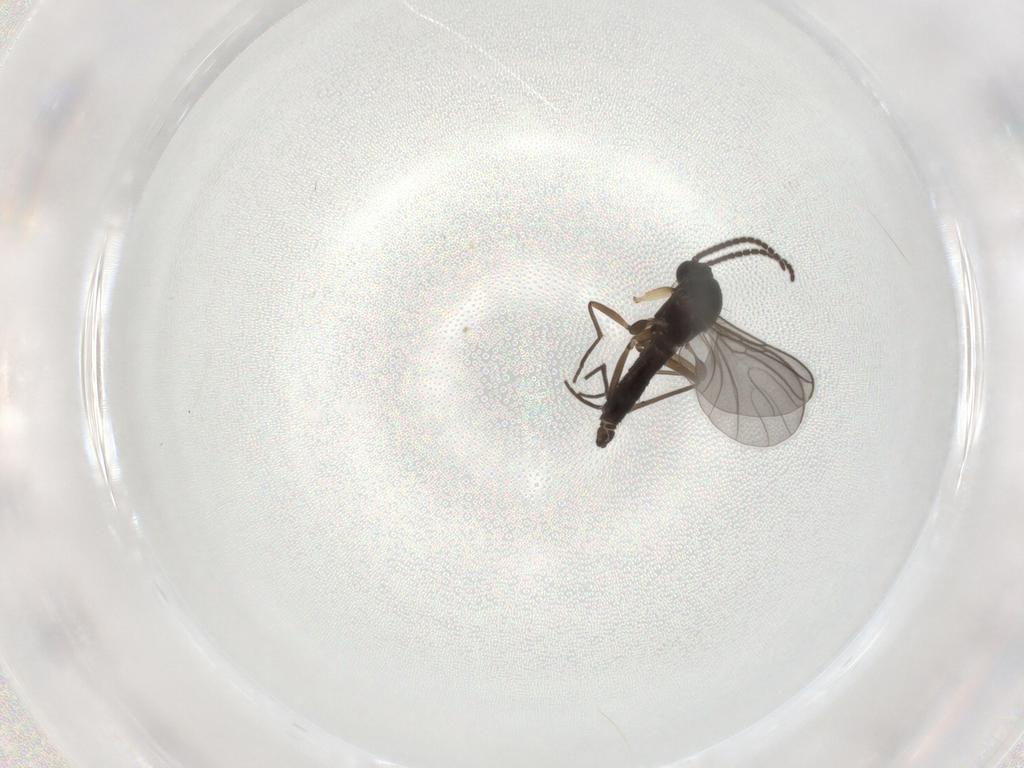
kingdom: Animalia
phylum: Arthropoda
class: Insecta
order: Diptera
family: Sciaridae
